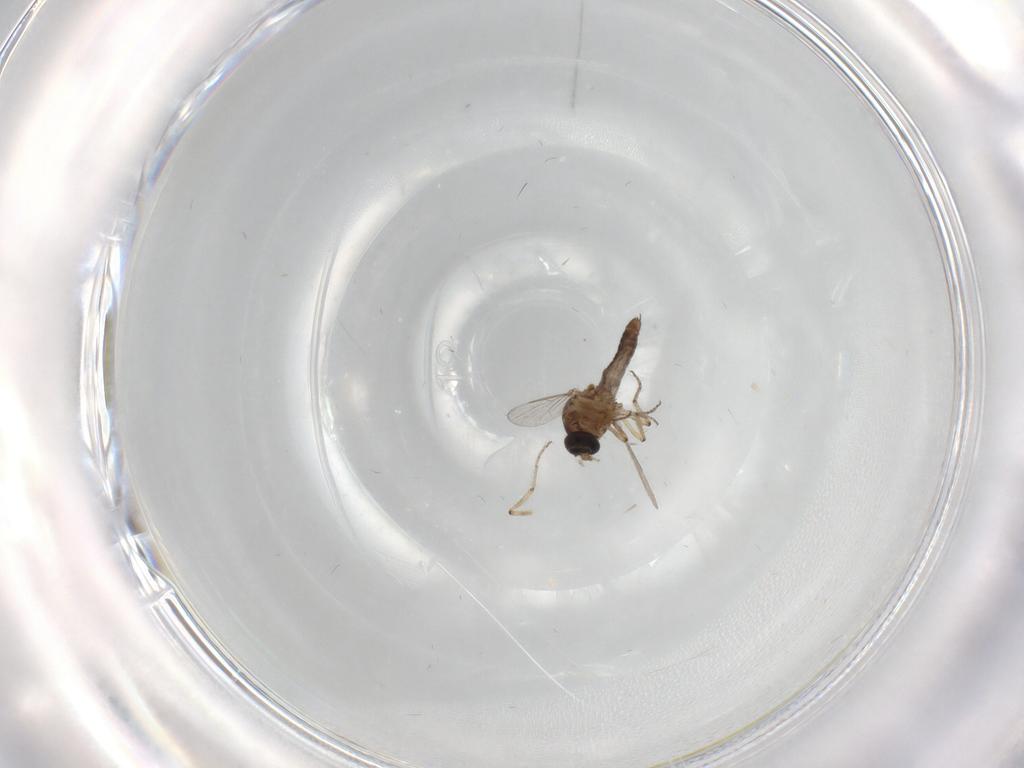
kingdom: Animalia
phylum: Arthropoda
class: Insecta
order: Diptera
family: Ceratopogonidae
